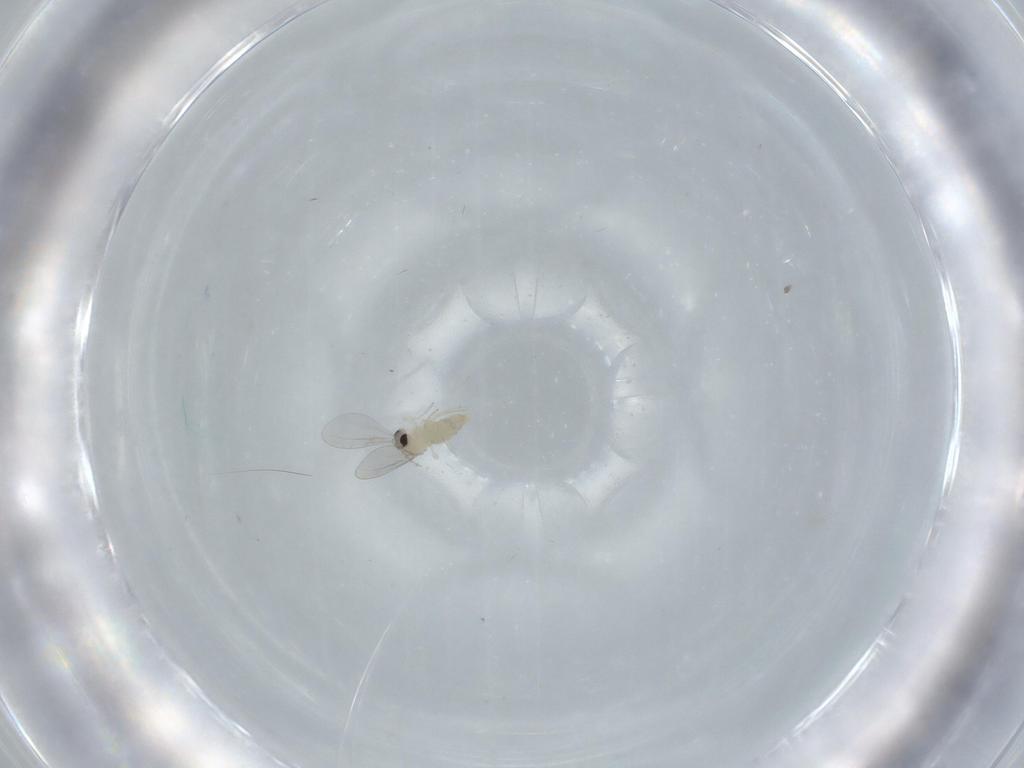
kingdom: Animalia
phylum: Arthropoda
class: Insecta
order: Diptera
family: Cecidomyiidae
